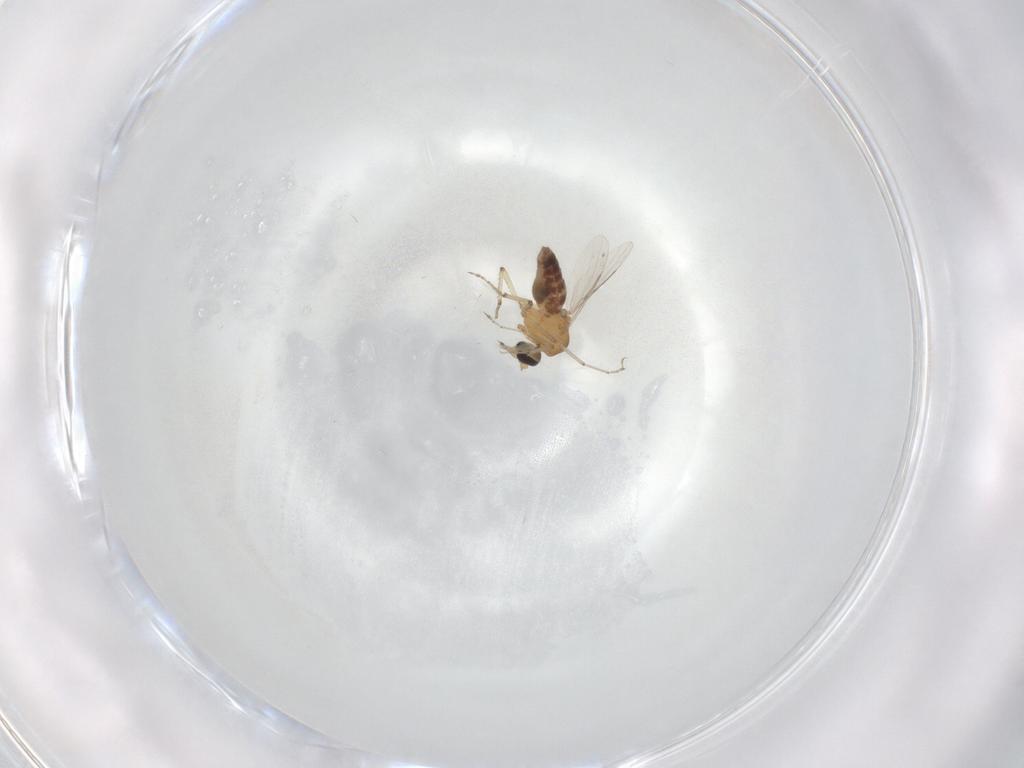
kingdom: Animalia
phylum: Arthropoda
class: Insecta
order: Diptera
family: Ceratopogonidae
